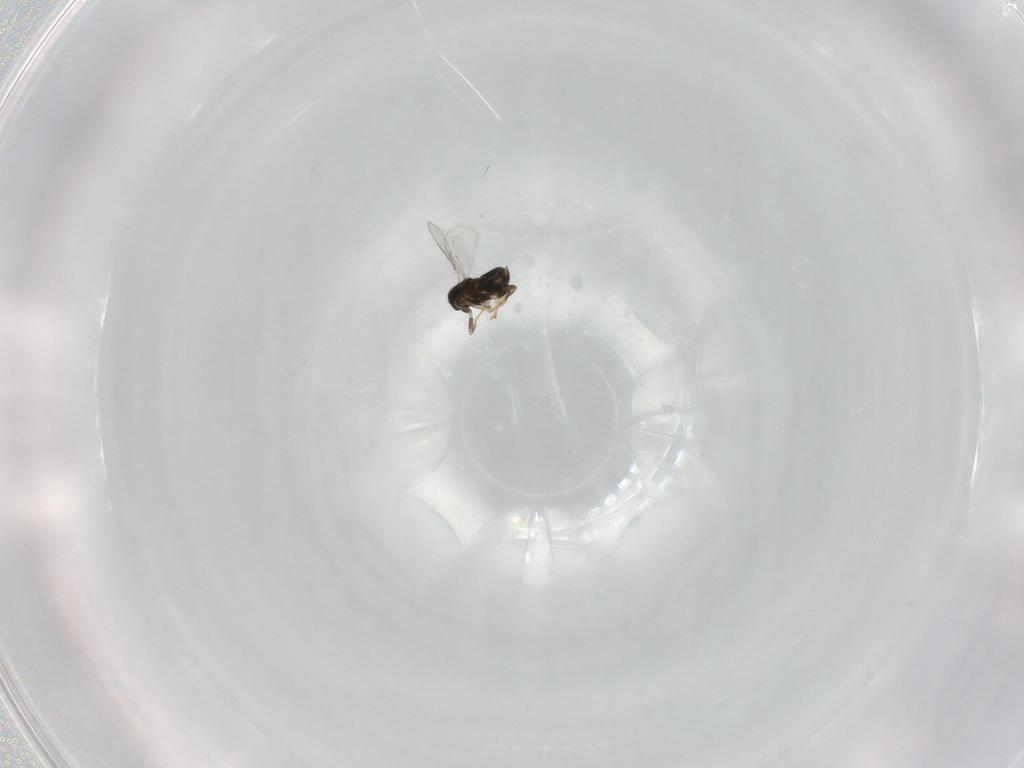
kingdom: Animalia
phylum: Arthropoda
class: Insecta
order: Hymenoptera
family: Aphelinidae
